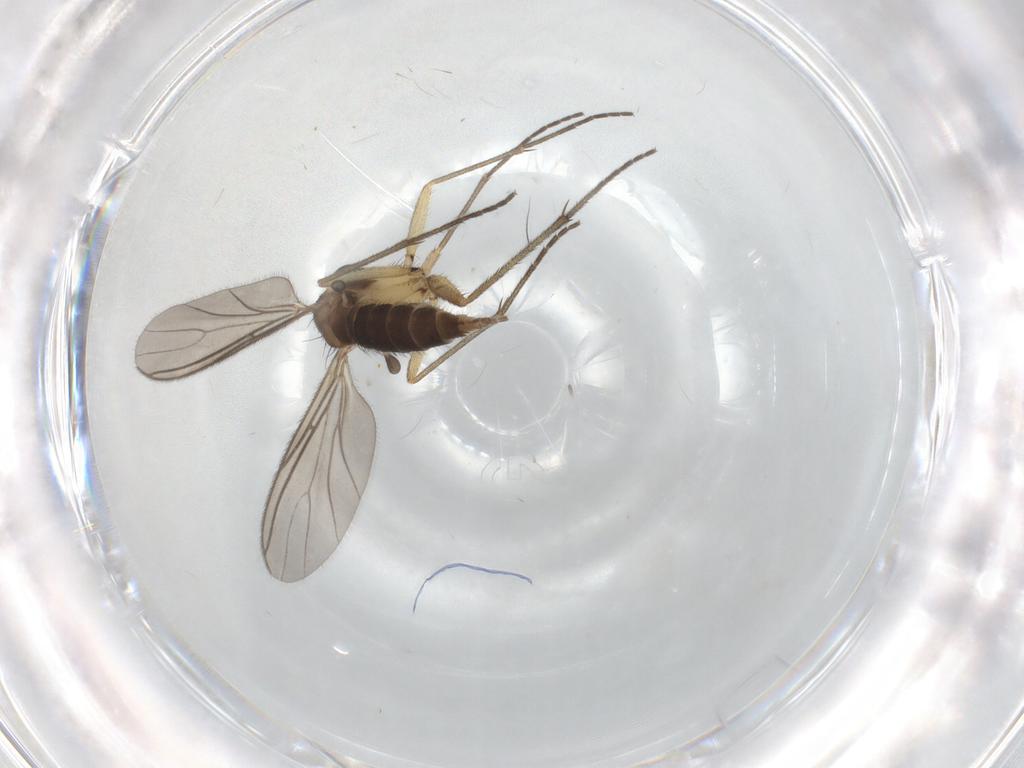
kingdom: Animalia
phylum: Arthropoda
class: Insecta
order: Diptera
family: Sciaridae
